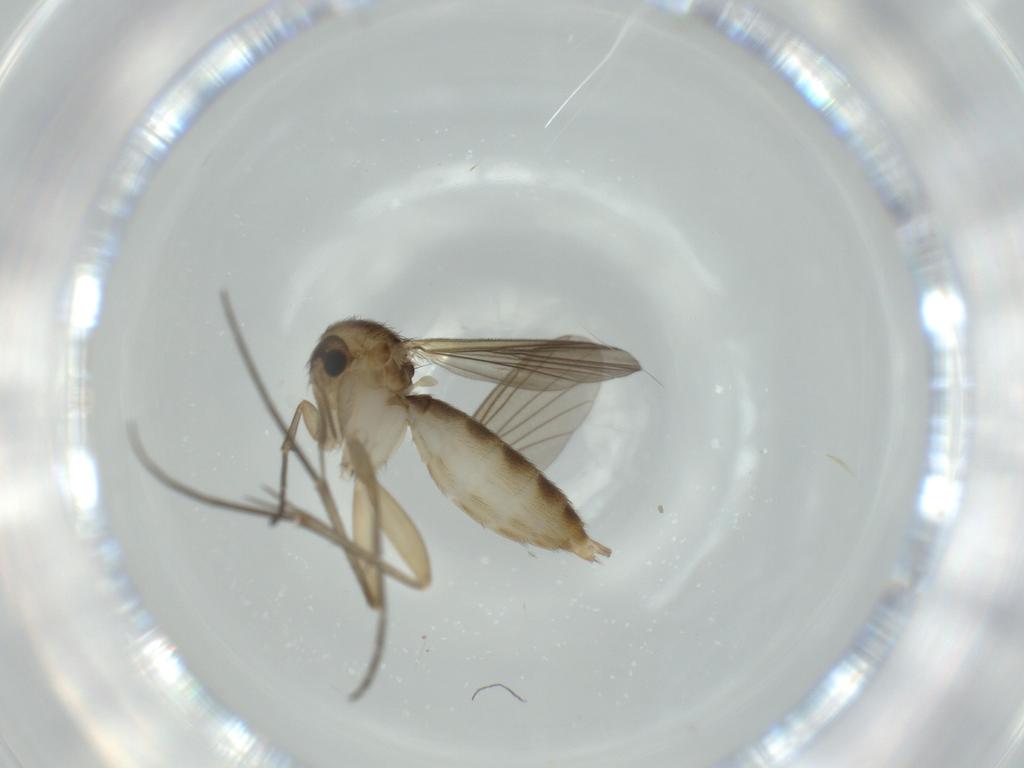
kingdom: Animalia
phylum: Arthropoda
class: Insecta
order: Diptera
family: Mycetophilidae
